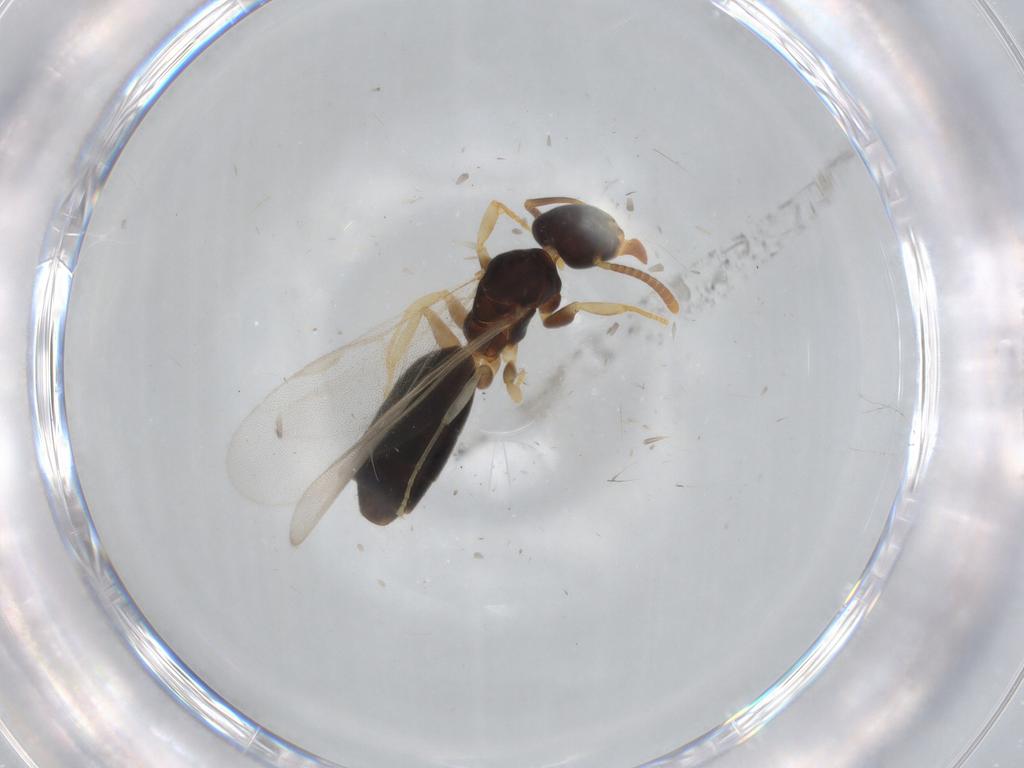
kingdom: Animalia
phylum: Arthropoda
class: Insecta
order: Hymenoptera
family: Formicidae
